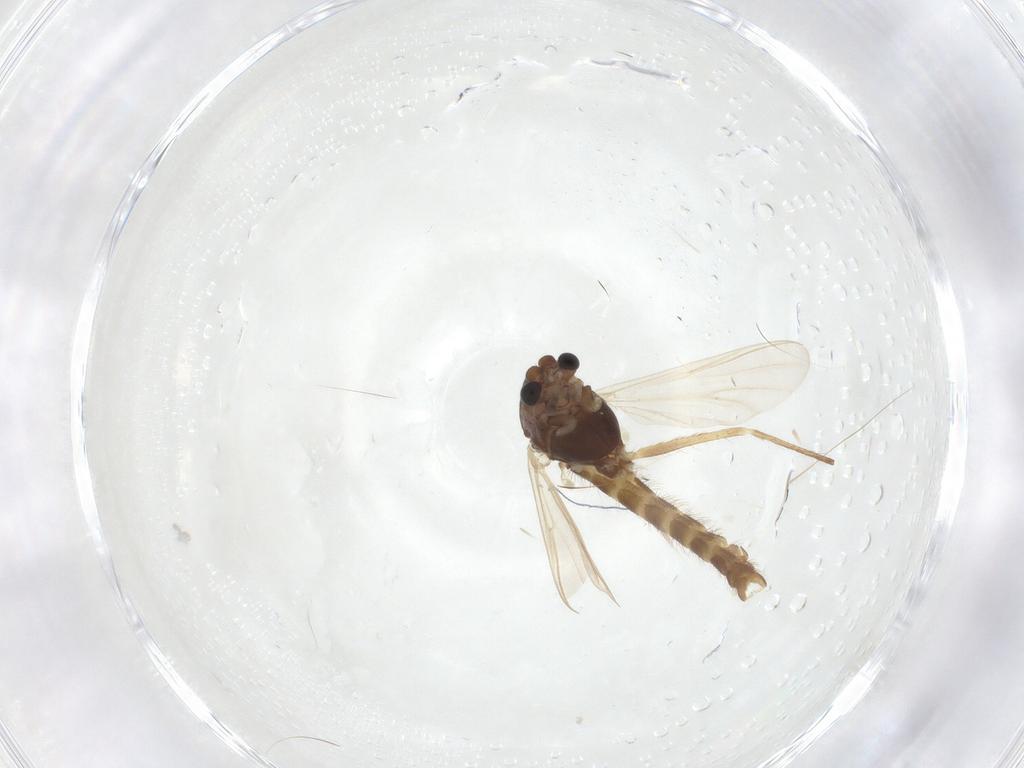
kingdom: Animalia
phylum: Arthropoda
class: Insecta
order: Diptera
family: Chironomidae
